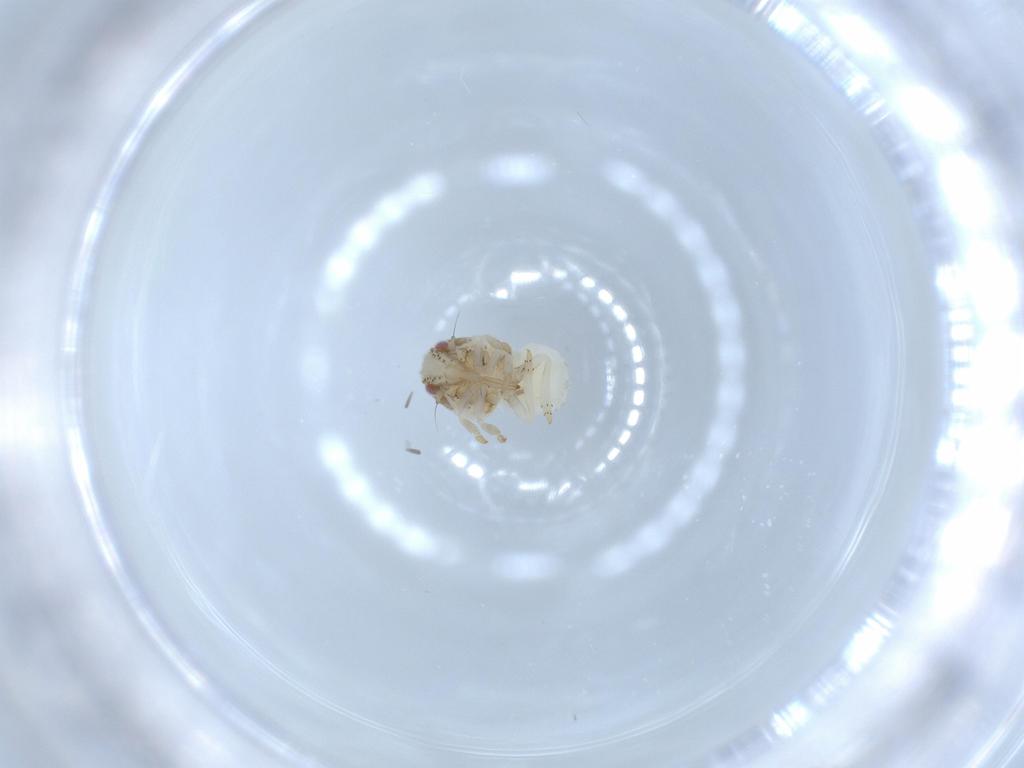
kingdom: Animalia
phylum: Arthropoda
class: Insecta
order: Hemiptera
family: Acanaloniidae
